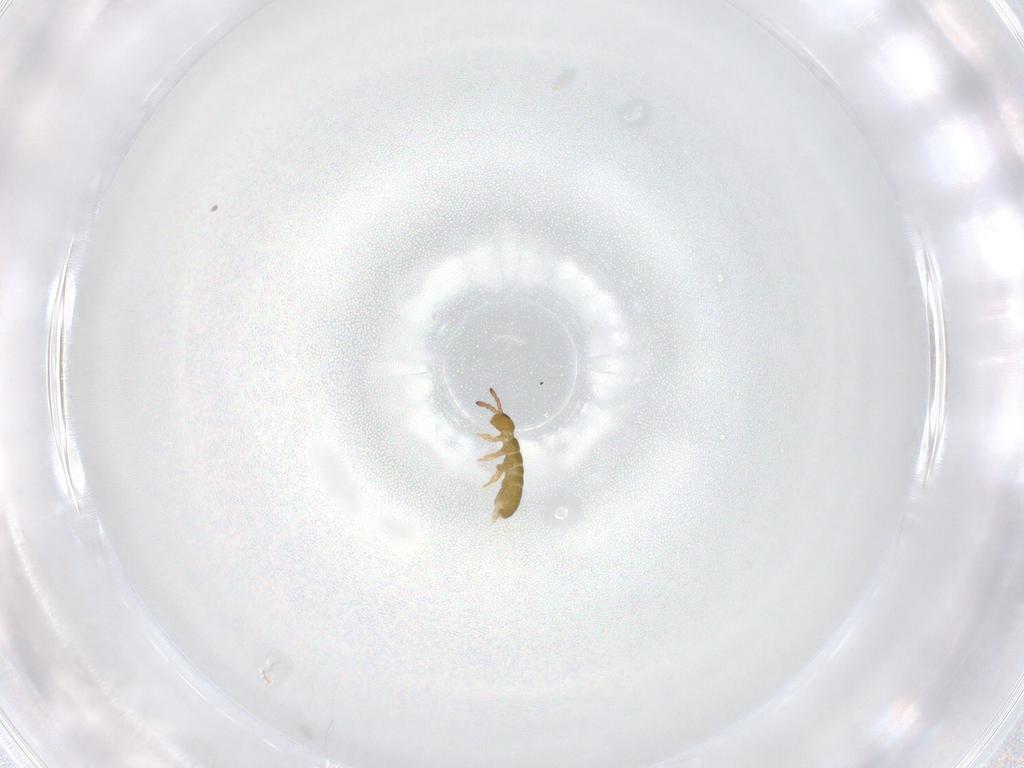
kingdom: Animalia
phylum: Arthropoda
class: Collembola
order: Entomobryomorpha
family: Isotomidae
